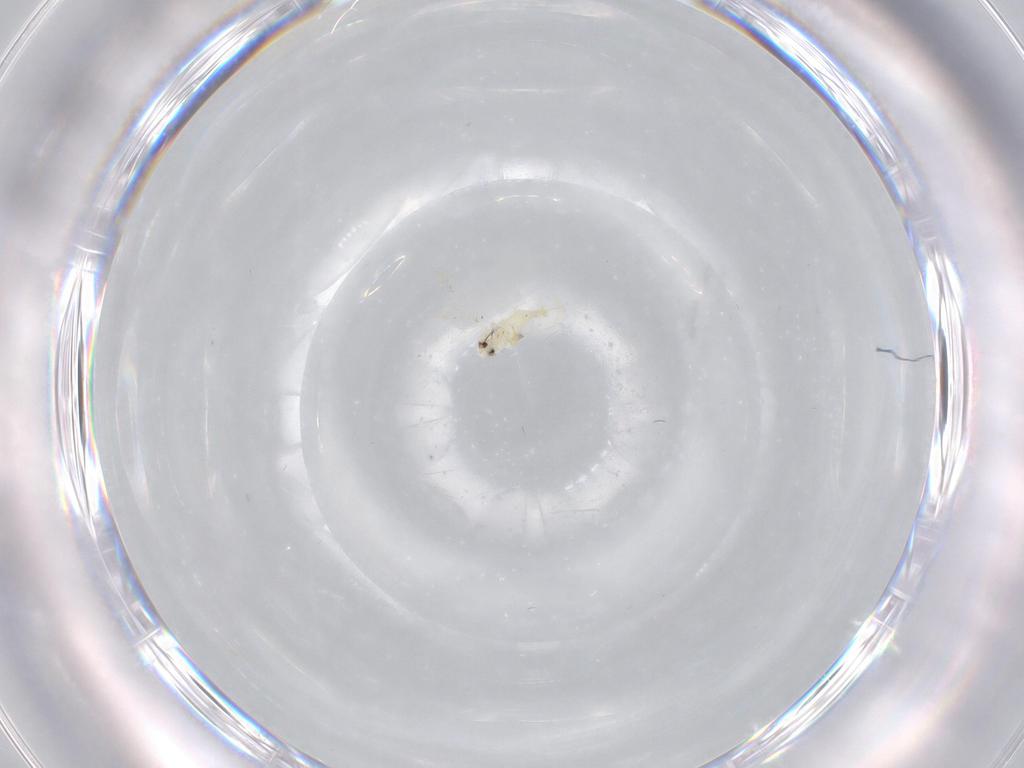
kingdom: Animalia
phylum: Arthropoda
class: Insecta
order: Hemiptera
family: Aleyrodidae
